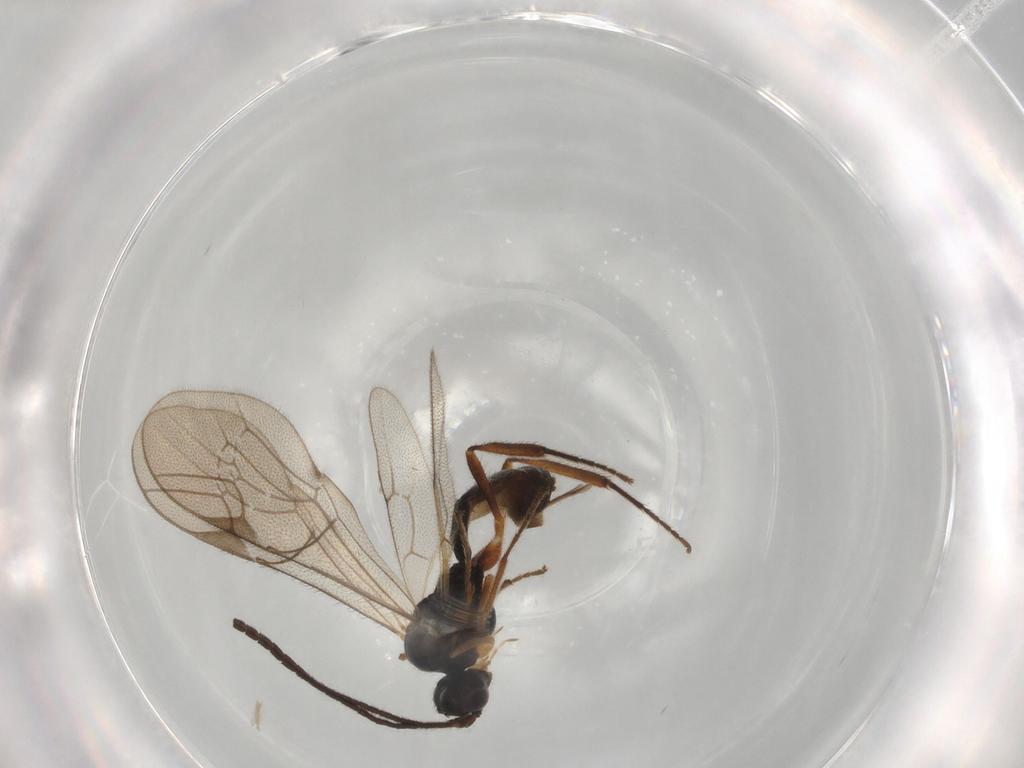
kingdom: Animalia
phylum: Arthropoda
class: Insecta
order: Hymenoptera
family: Ichneumonidae
